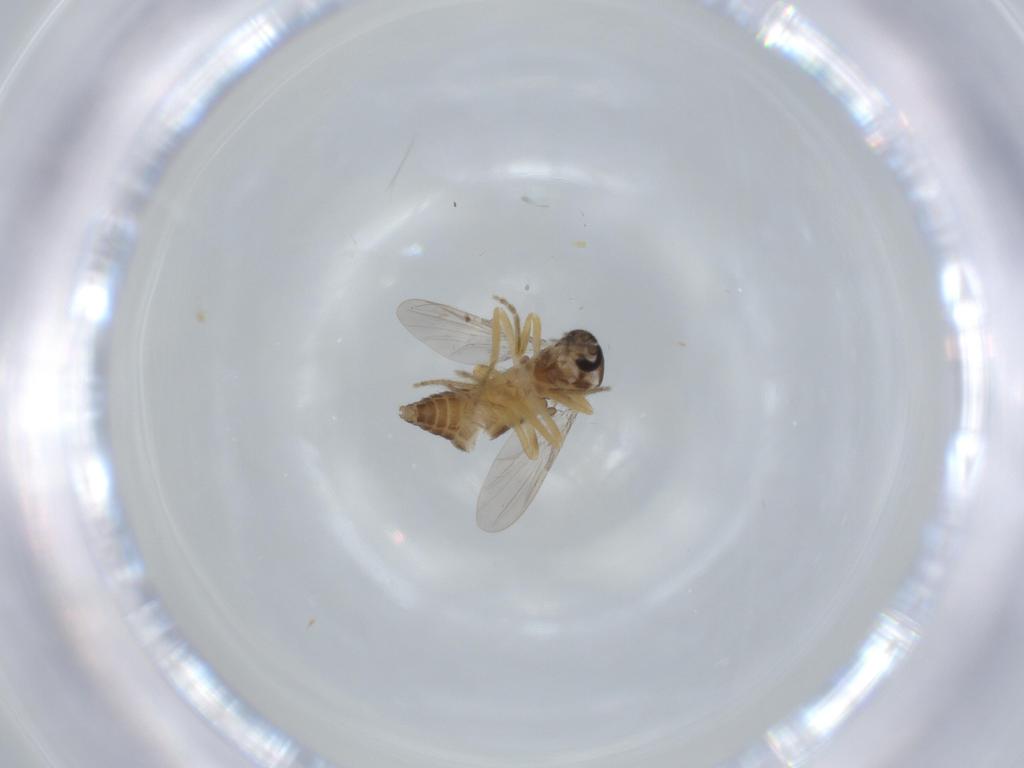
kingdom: Animalia
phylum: Arthropoda
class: Insecta
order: Diptera
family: Ceratopogonidae
